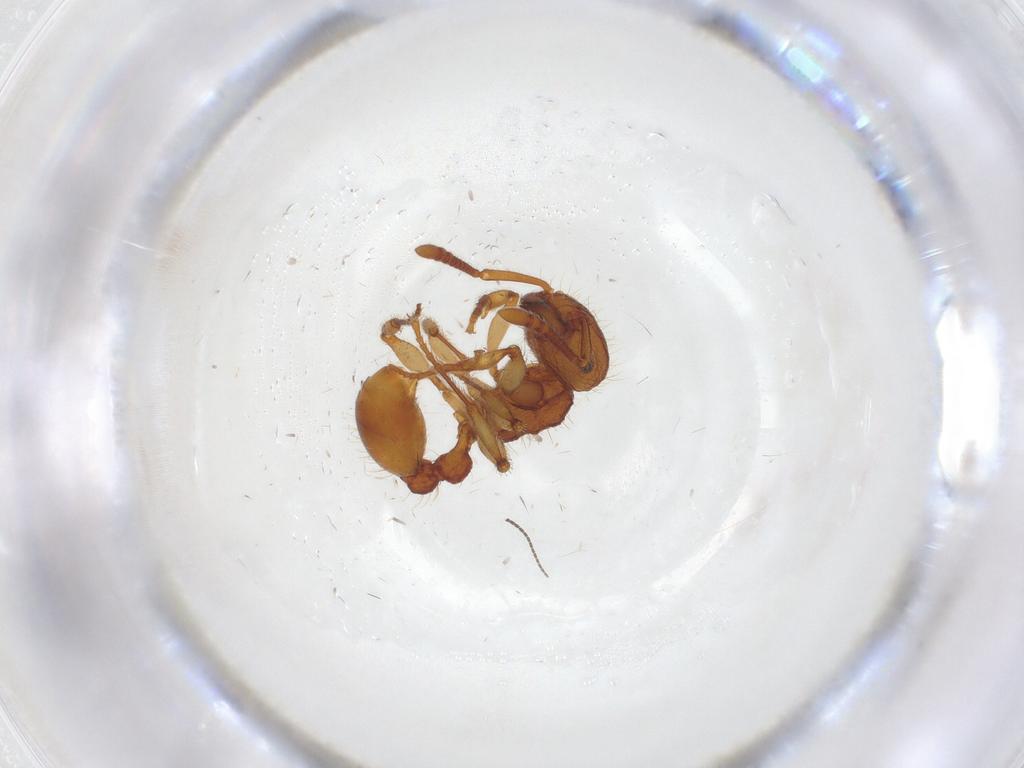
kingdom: Animalia
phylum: Arthropoda
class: Insecta
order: Hymenoptera
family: Formicidae
